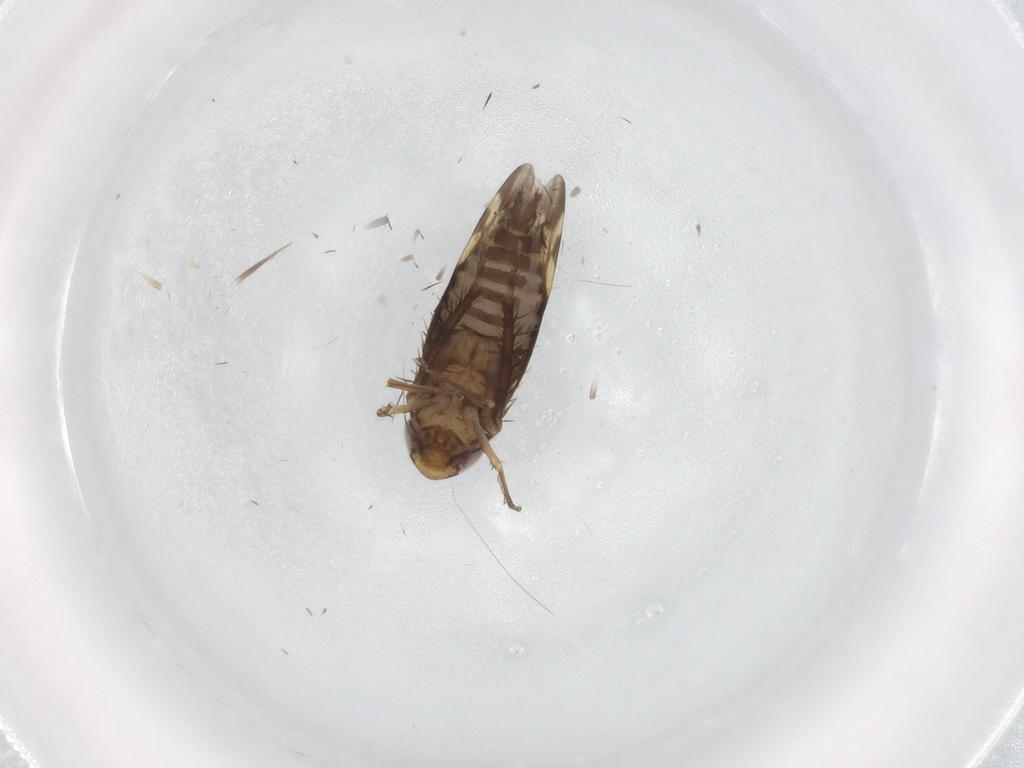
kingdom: Animalia
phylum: Arthropoda
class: Insecta
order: Hemiptera
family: Cicadellidae
